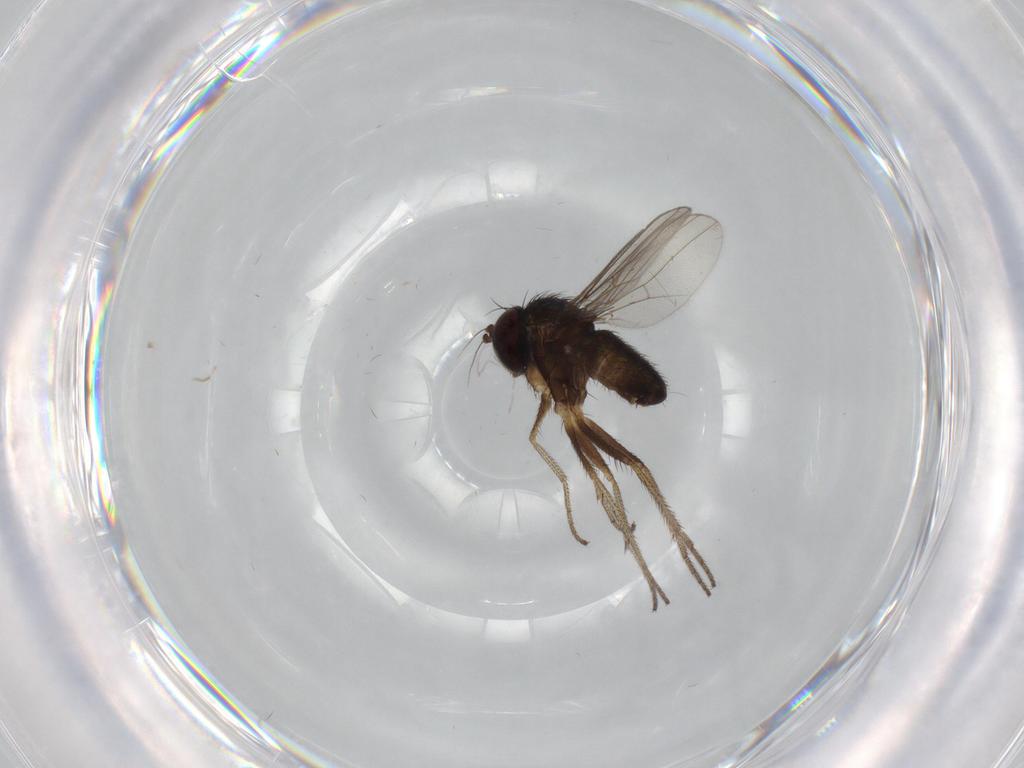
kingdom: Animalia
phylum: Arthropoda
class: Insecta
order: Diptera
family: Dolichopodidae
